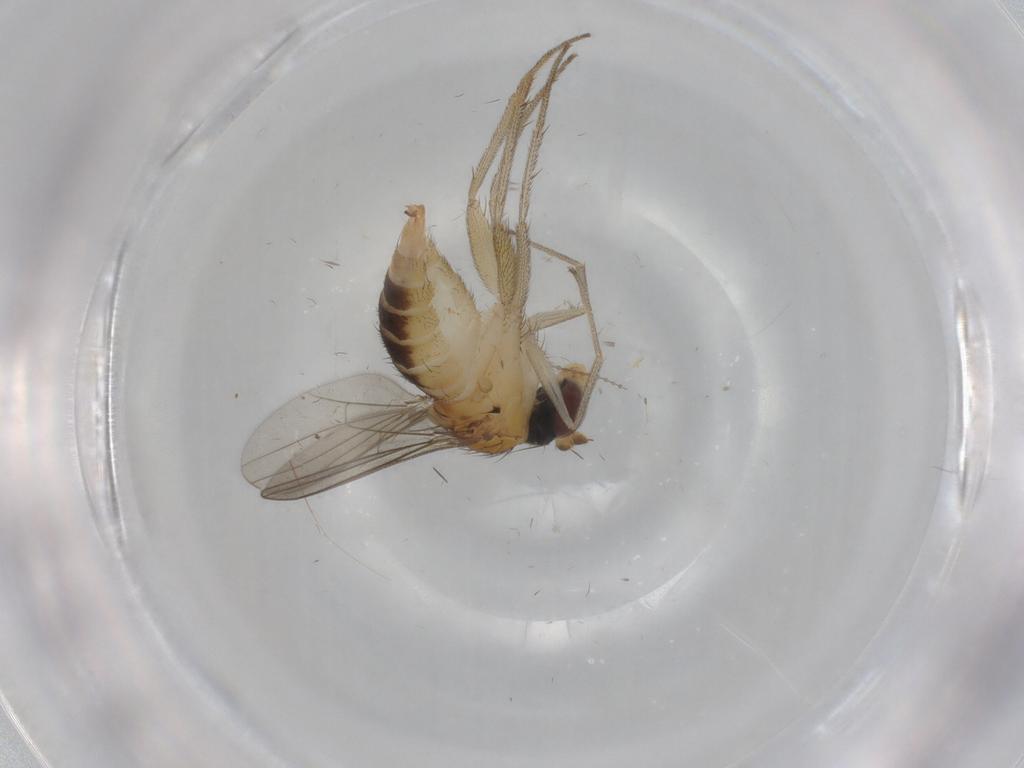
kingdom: Animalia
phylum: Arthropoda
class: Insecta
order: Diptera
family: Dolichopodidae
